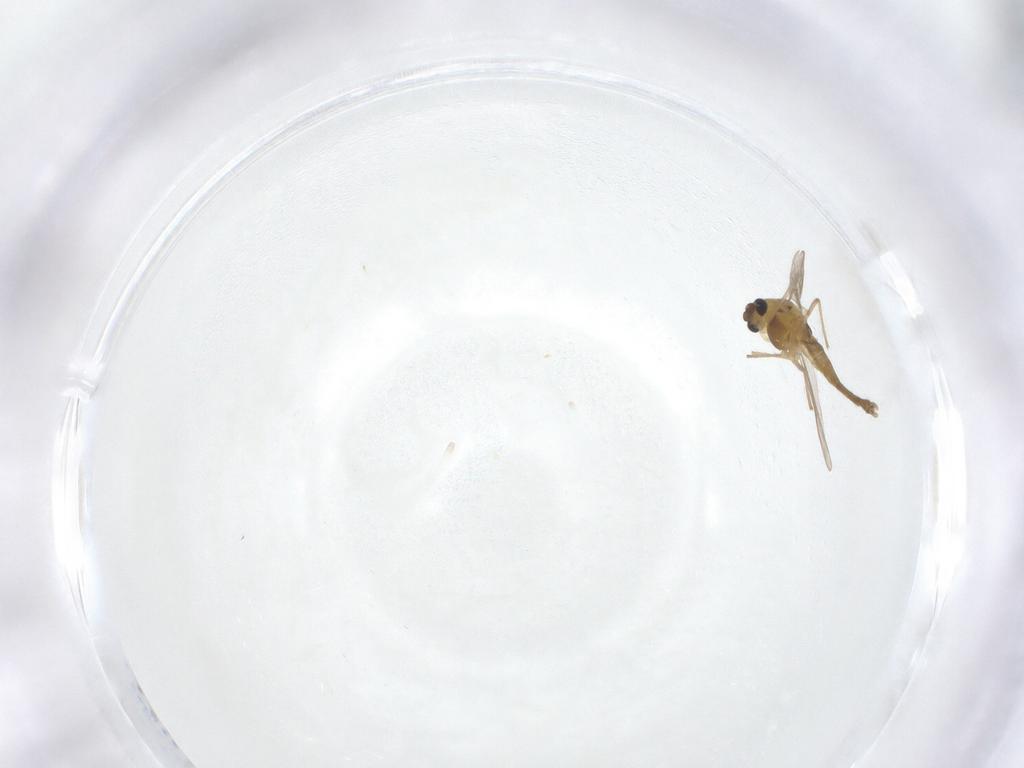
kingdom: Animalia
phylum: Arthropoda
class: Insecta
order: Diptera
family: Chironomidae
